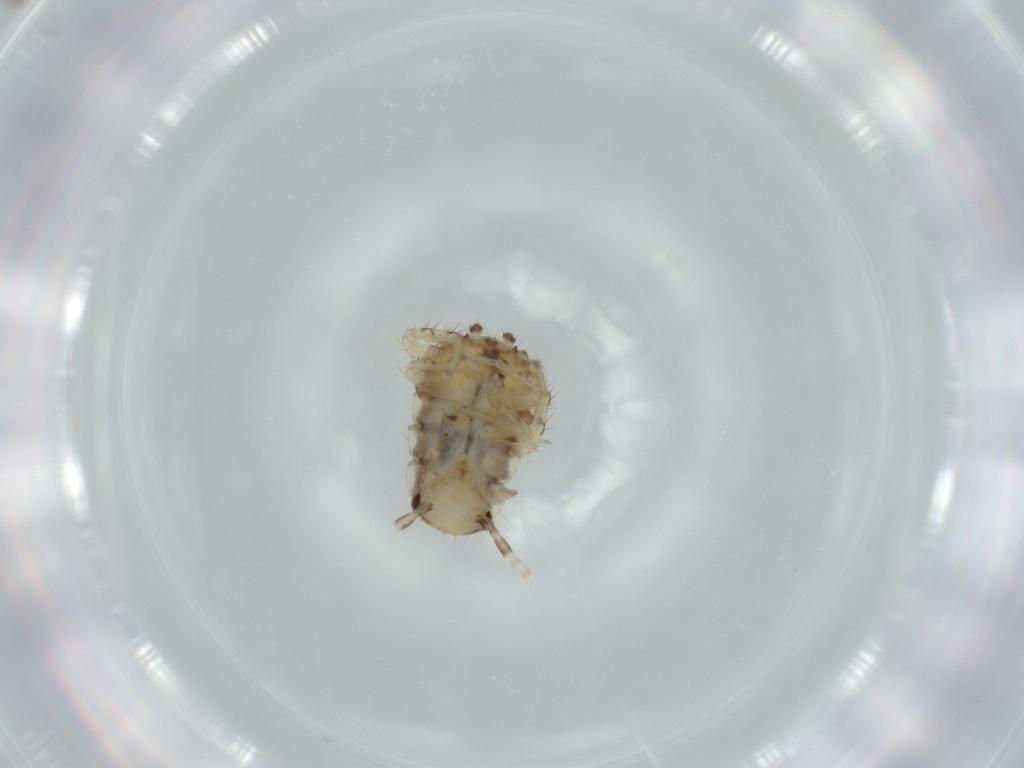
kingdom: Animalia
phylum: Arthropoda
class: Insecta
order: Blattodea
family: Ectobiidae
